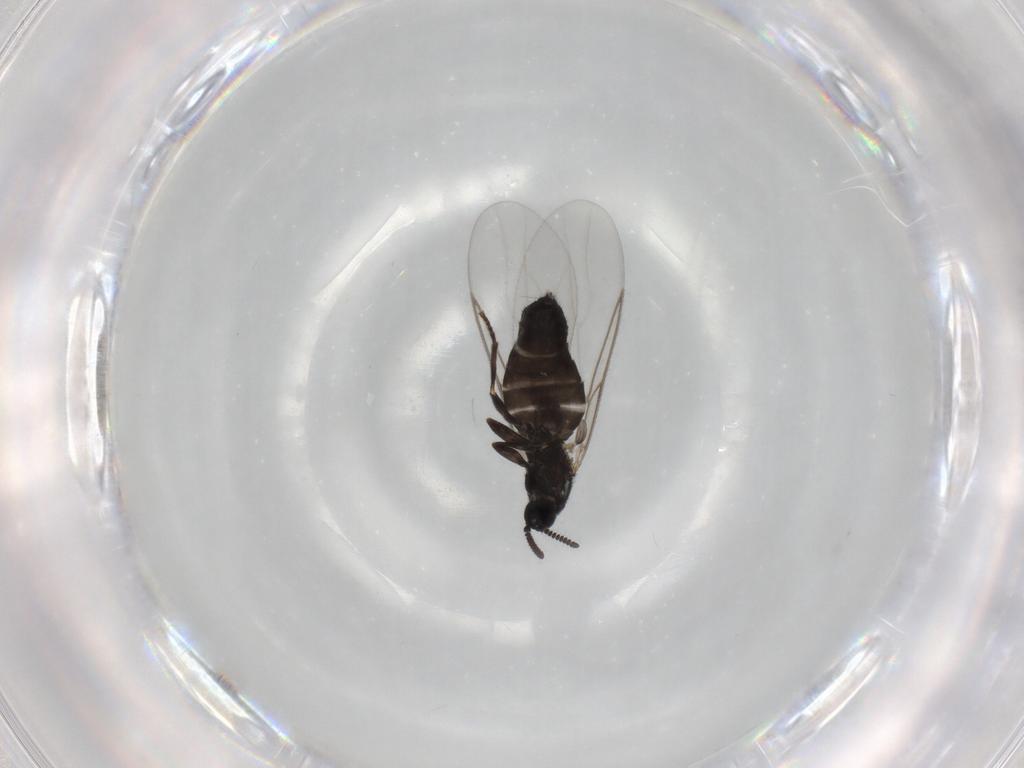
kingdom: Animalia
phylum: Arthropoda
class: Insecta
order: Diptera
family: Scatopsidae
